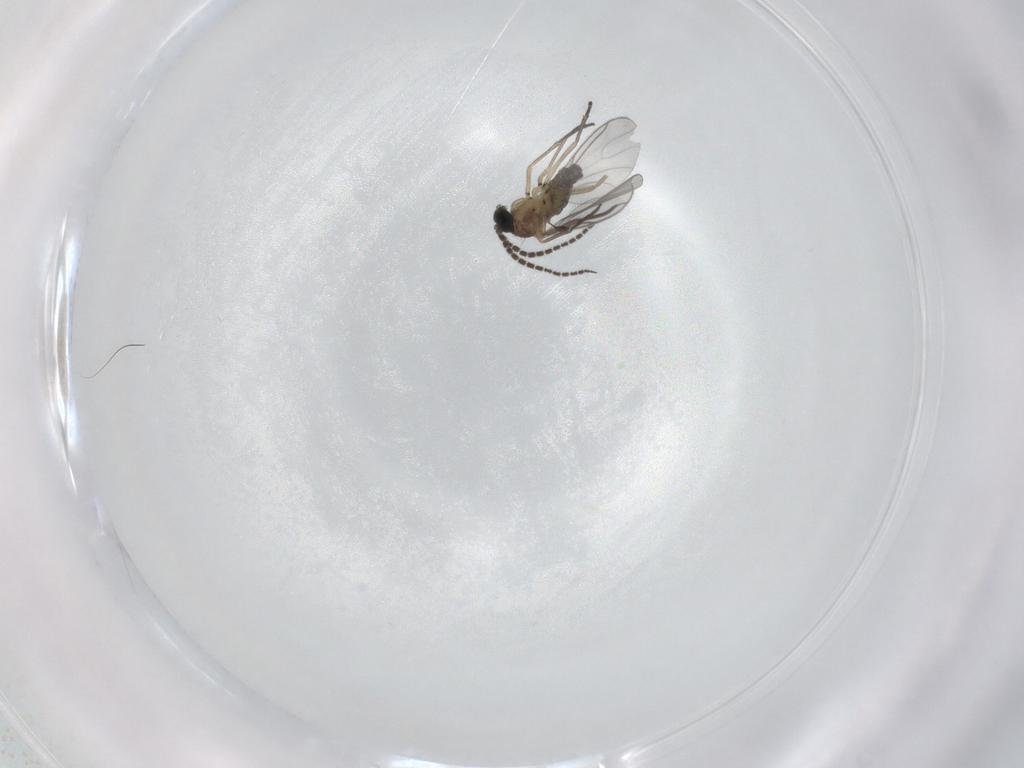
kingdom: Animalia
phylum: Arthropoda
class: Insecta
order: Diptera
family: Sciaridae
